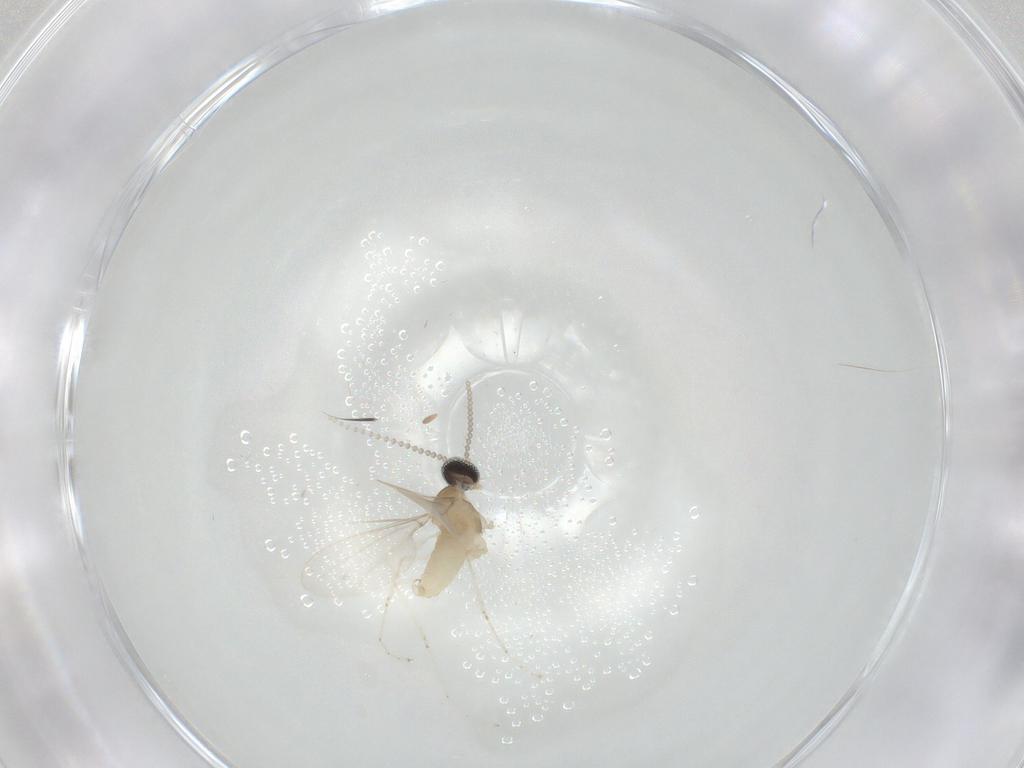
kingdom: Animalia
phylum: Arthropoda
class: Insecta
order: Diptera
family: Cecidomyiidae
